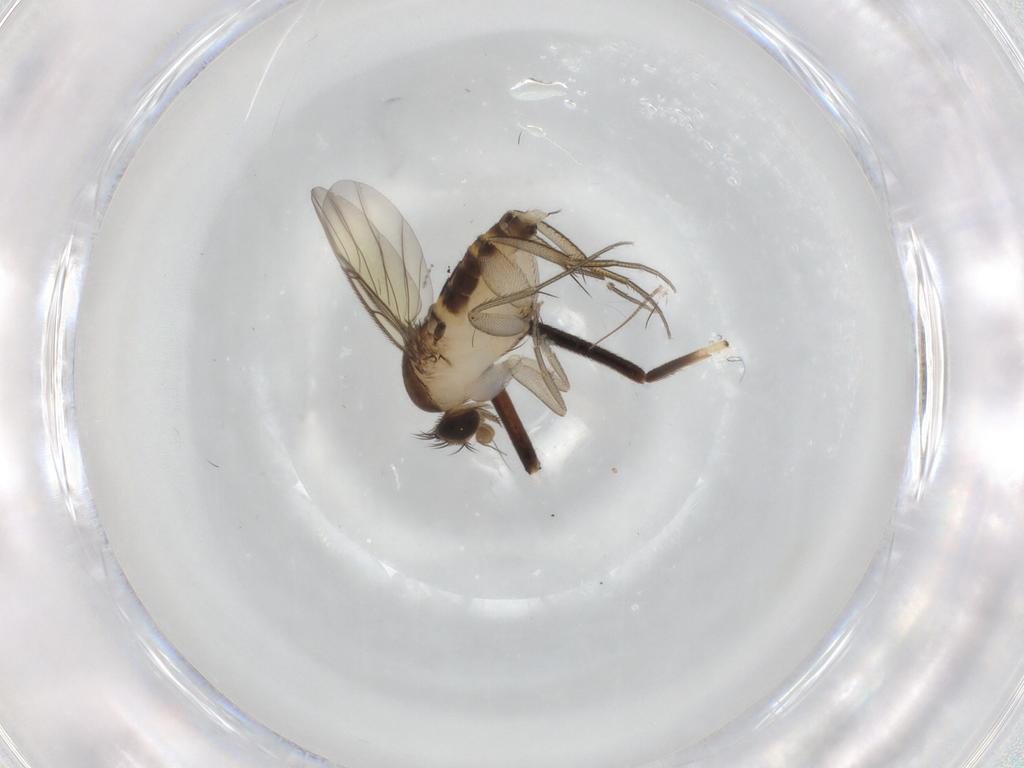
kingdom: Animalia
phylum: Arthropoda
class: Insecta
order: Diptera
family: Phoridae
